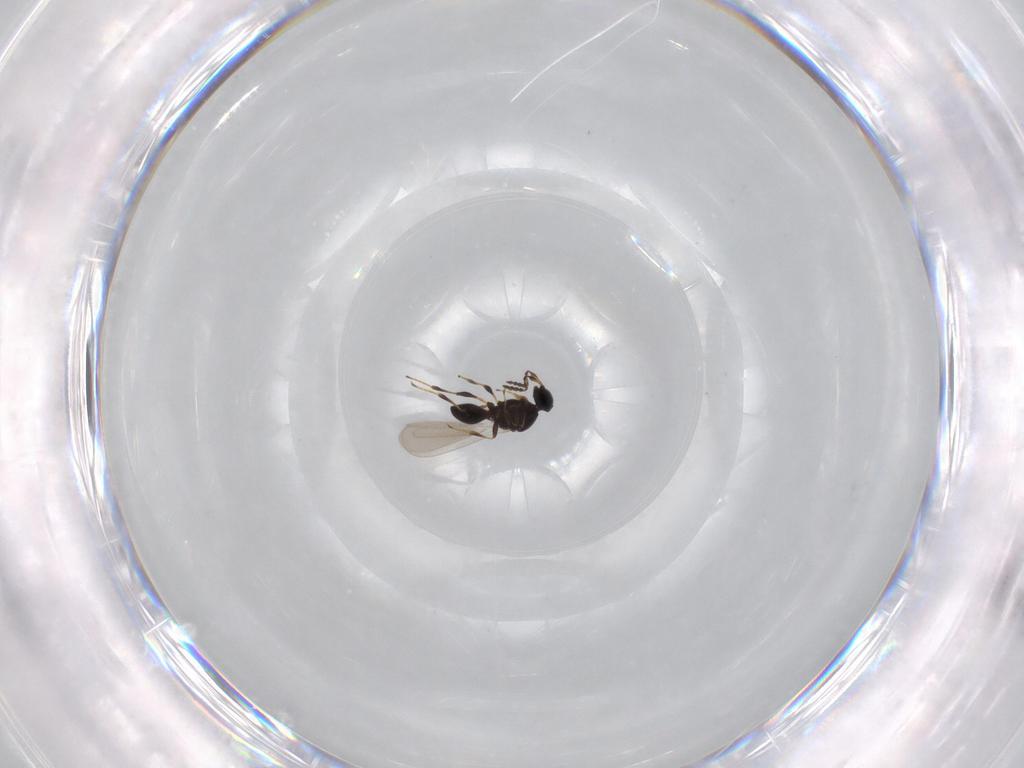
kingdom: Animalia
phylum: Arthropoda
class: Insecta
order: Hymenoptera
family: Platygastridae
